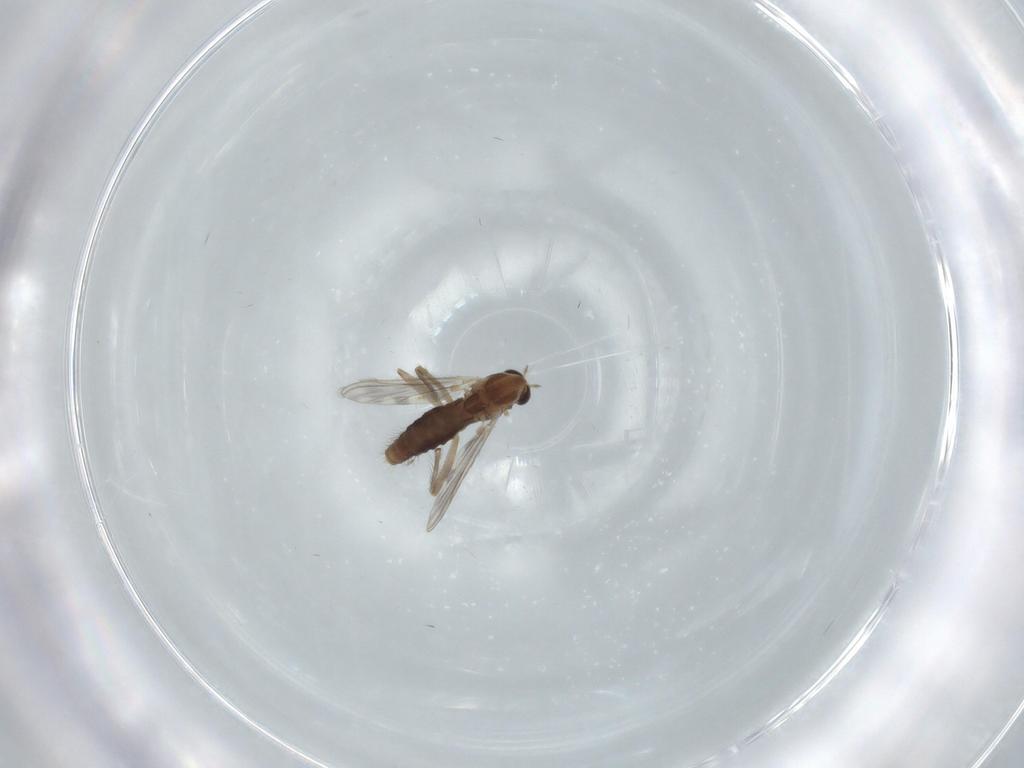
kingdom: Animalia
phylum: Arthropoda
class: Insecta
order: Diptera
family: Chironomidae
